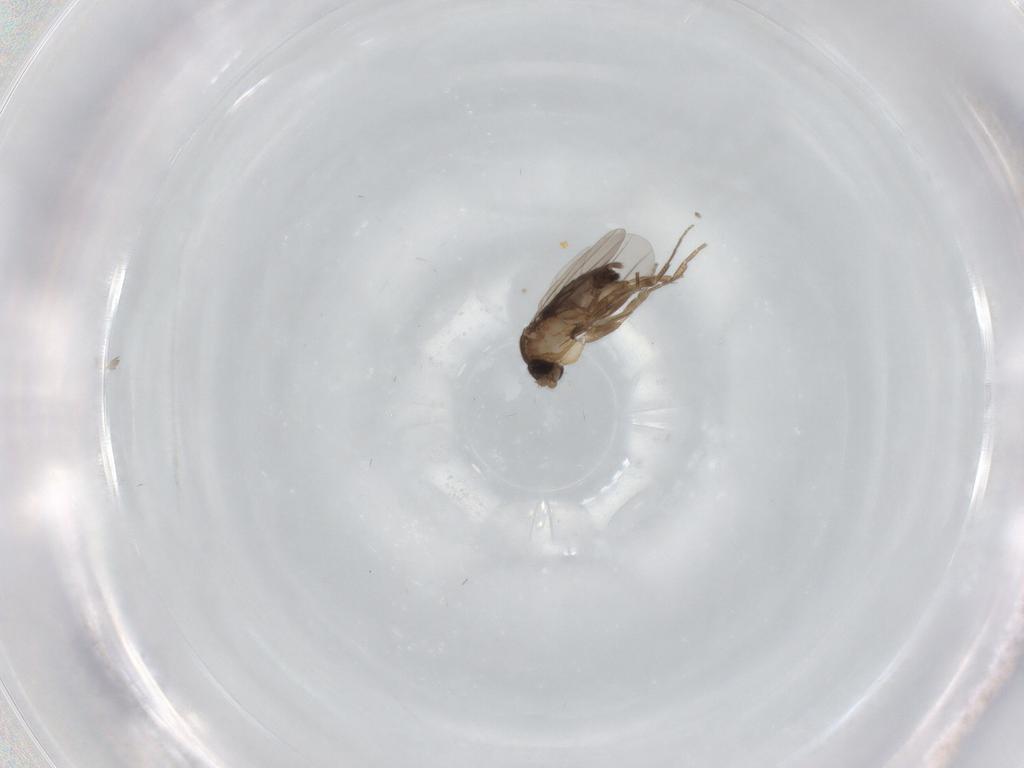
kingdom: Animalia
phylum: Arthropoda
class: Insecta
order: Diptera
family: Phoridae
